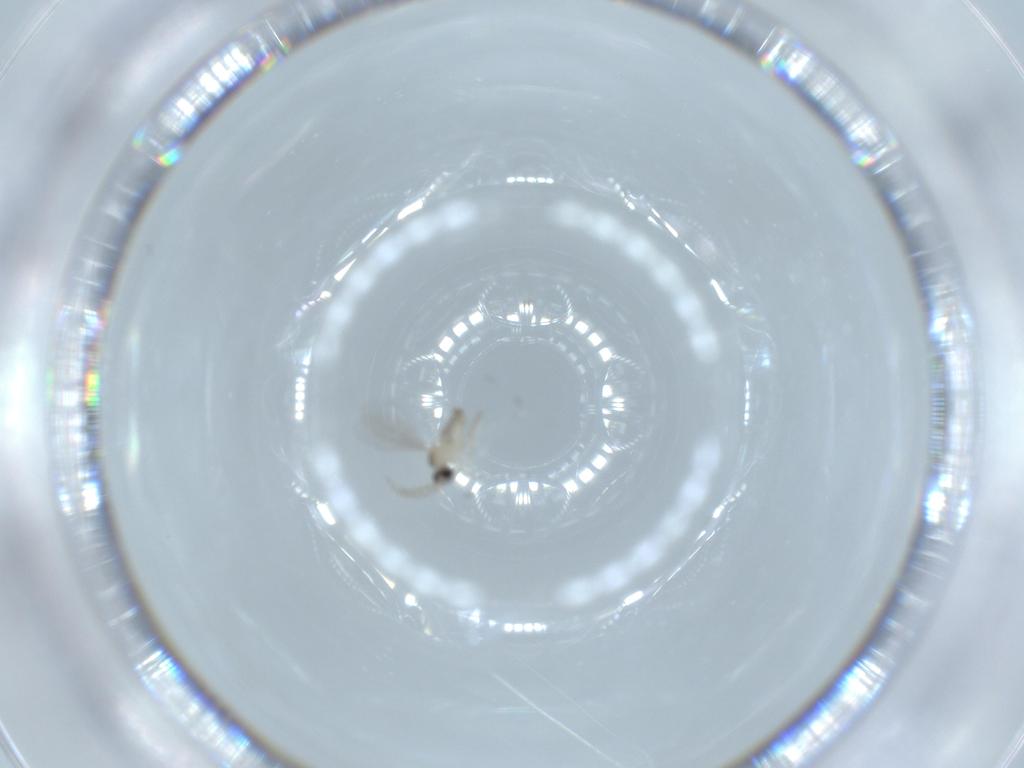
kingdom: Animalia
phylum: Arthropoda
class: Insecta
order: Diptera
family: Cecidomyiidae
